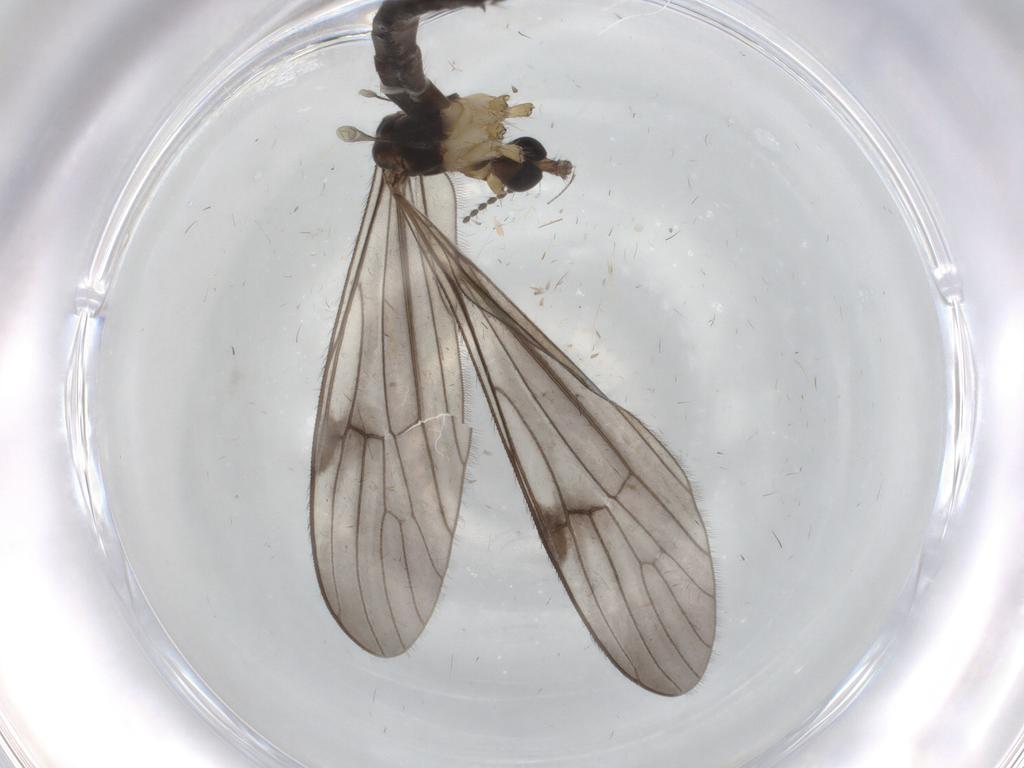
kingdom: Animalia
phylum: Arthropoda
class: Insecta
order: Diptera
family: Limoniidae
